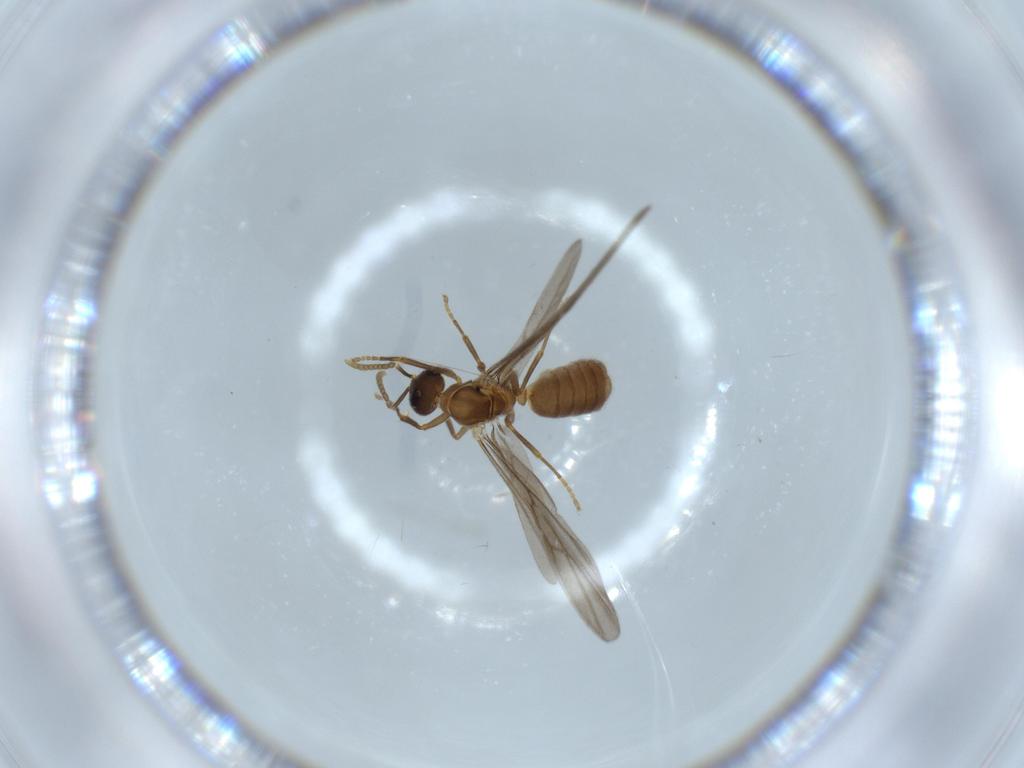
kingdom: Animalia
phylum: Arthropoda
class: Insecta
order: Hymenoptera
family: Formicidae
